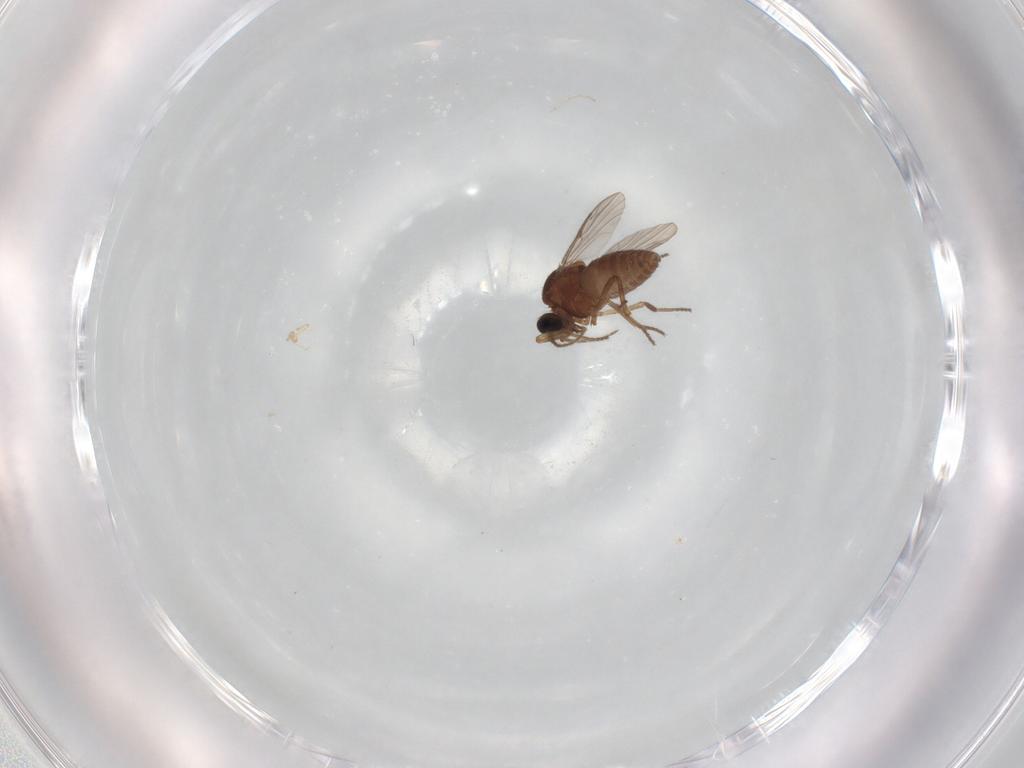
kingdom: Animalia
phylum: Arthropoda
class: Insecta
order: Diptera
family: Ceratopogonidae
